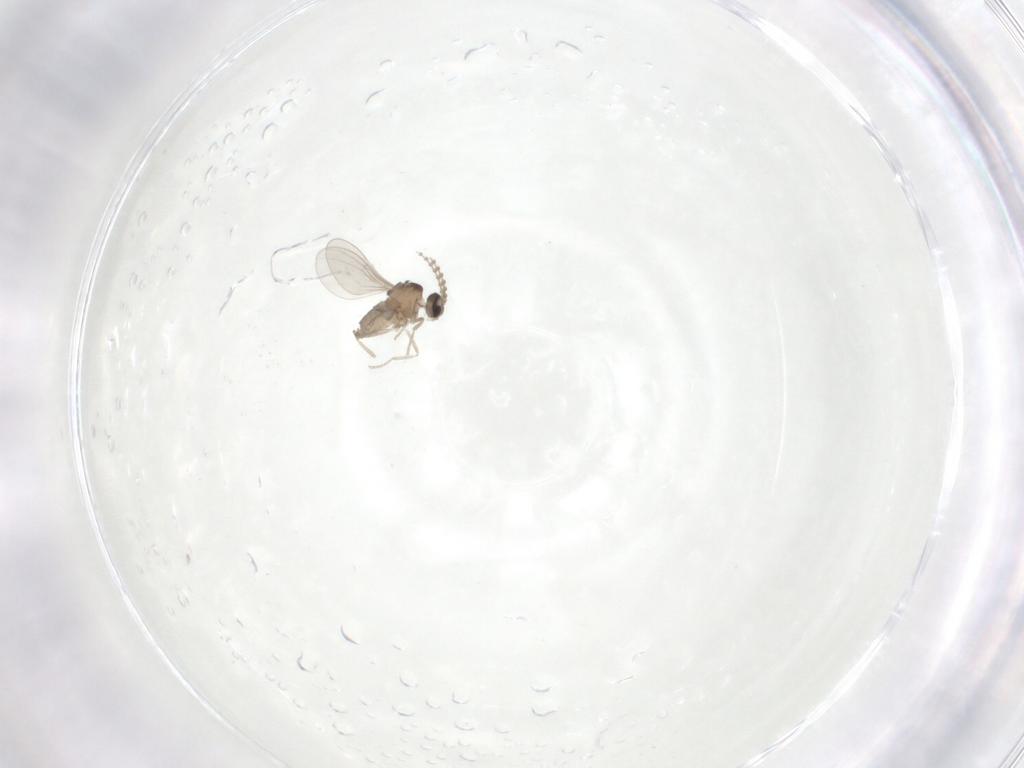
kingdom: Animalia
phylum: Arthropoda
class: Insecta
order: Diptera
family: Cecidomyiidae
